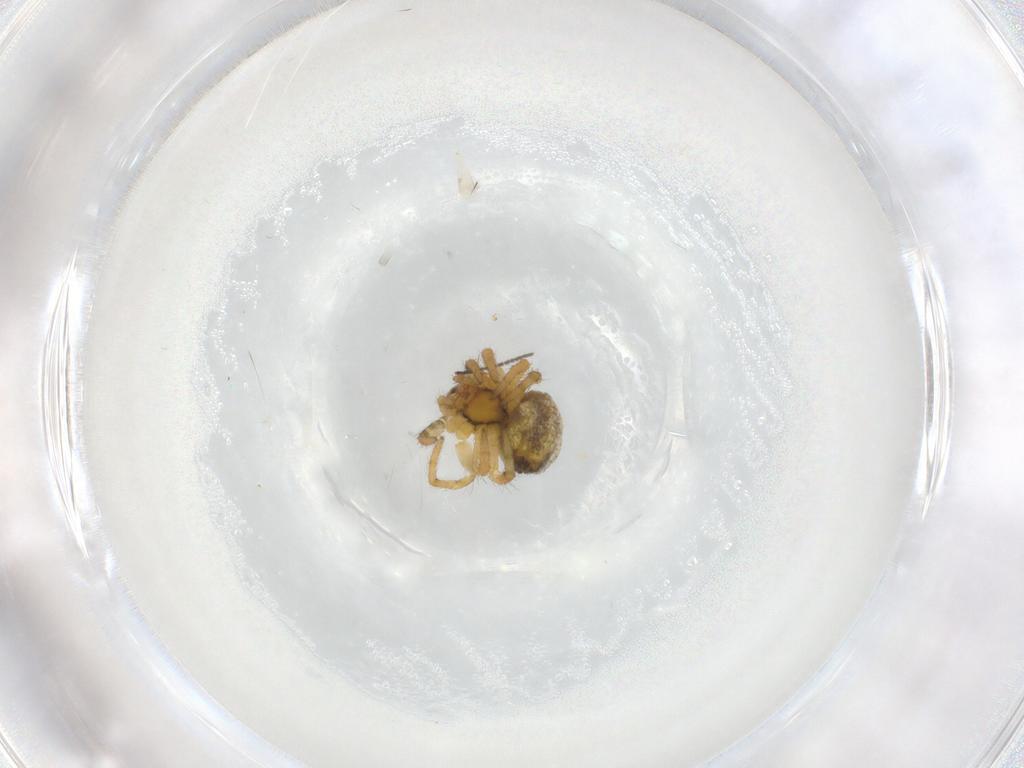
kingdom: Animalia
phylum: Arthropoda
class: Arachnida
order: Araneae
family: Araneidae
